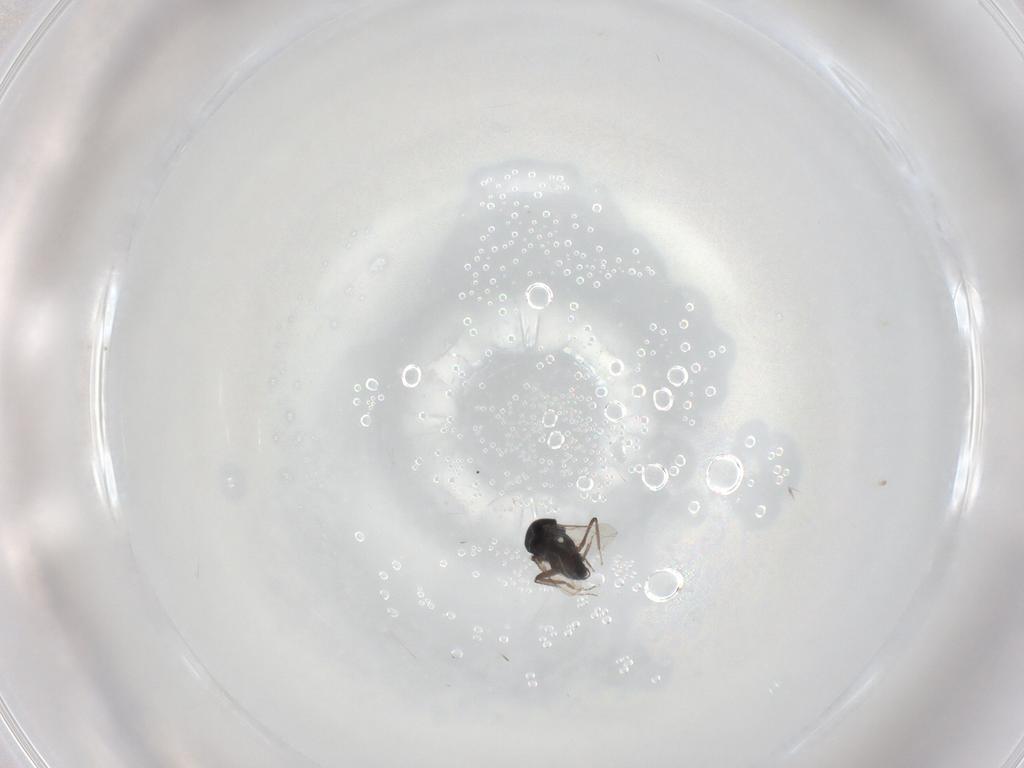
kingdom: Animalia
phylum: Arthropoda
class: Insecta
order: Diptera
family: Ceratopogonidae
